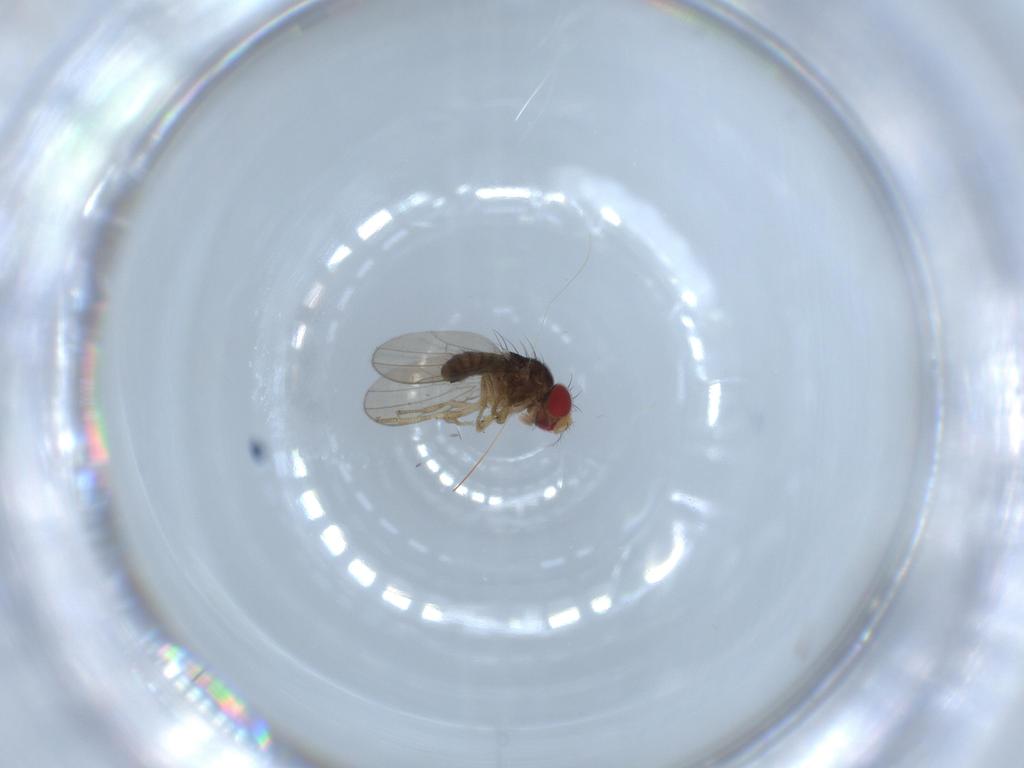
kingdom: Animalia
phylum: Arthropoda
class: Insecta
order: Diptera
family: Drosophilidae
